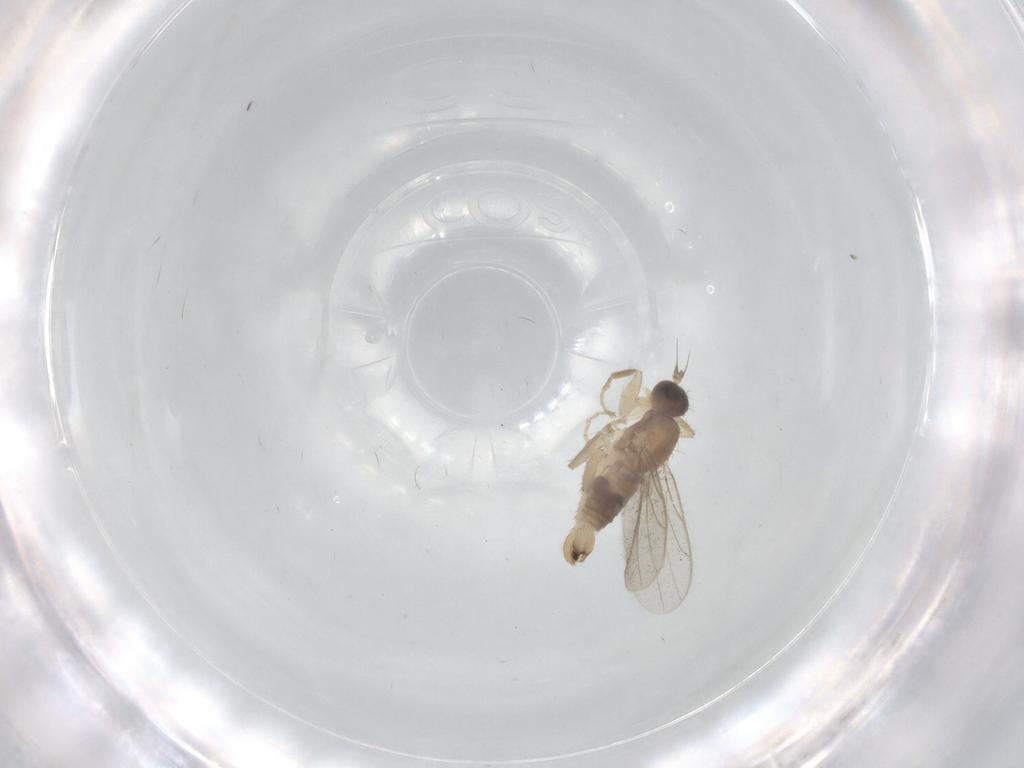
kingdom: Animalia
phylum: Arthropoda
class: Insecta
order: Diptera
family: Hybotidae
